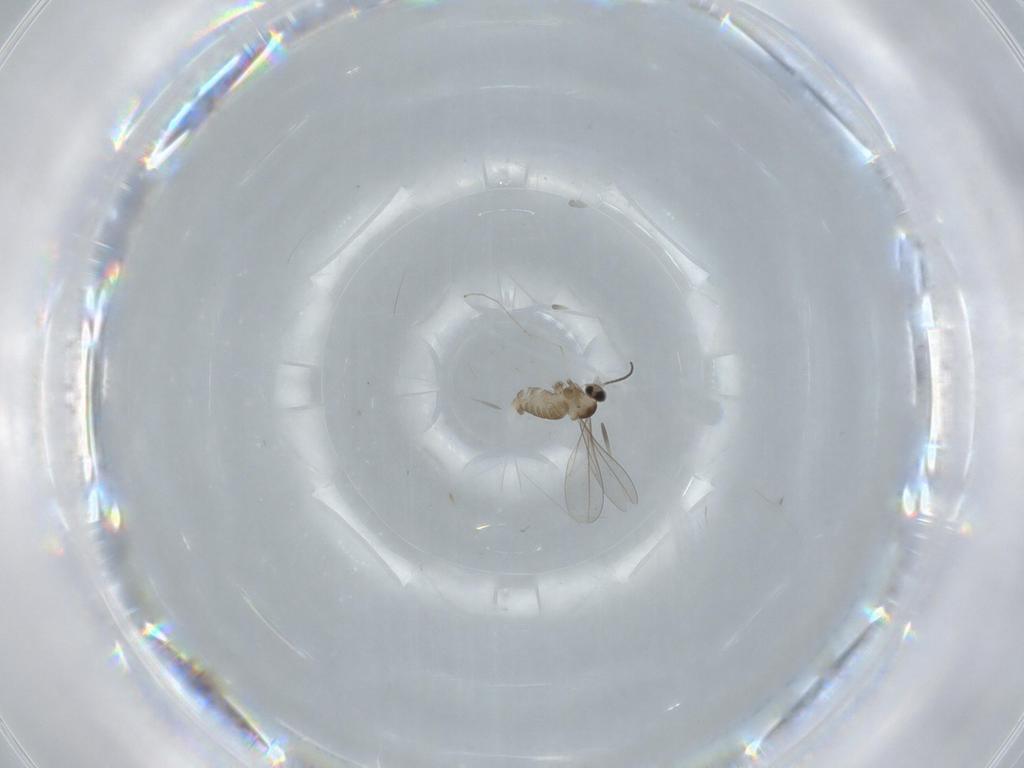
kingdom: Animalia
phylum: Arthropoda
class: Insecta
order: Diptera
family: Cecidomyiidae
